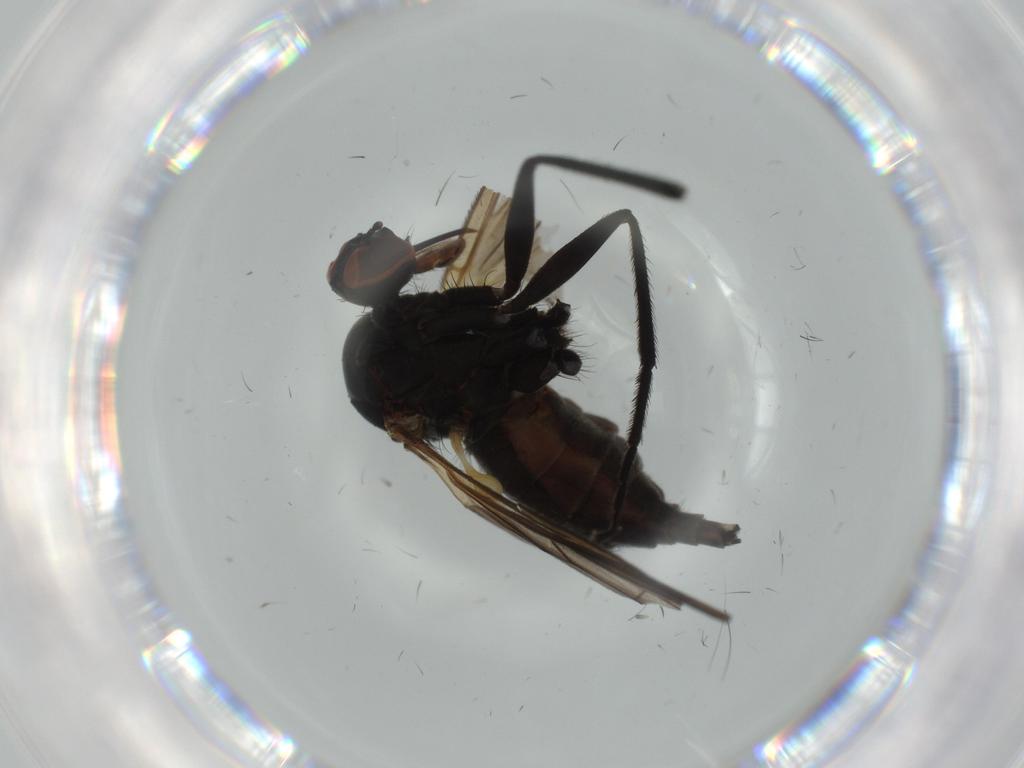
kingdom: Animalia
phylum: Arthropoda
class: Insecta
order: Diptera
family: Empididae
